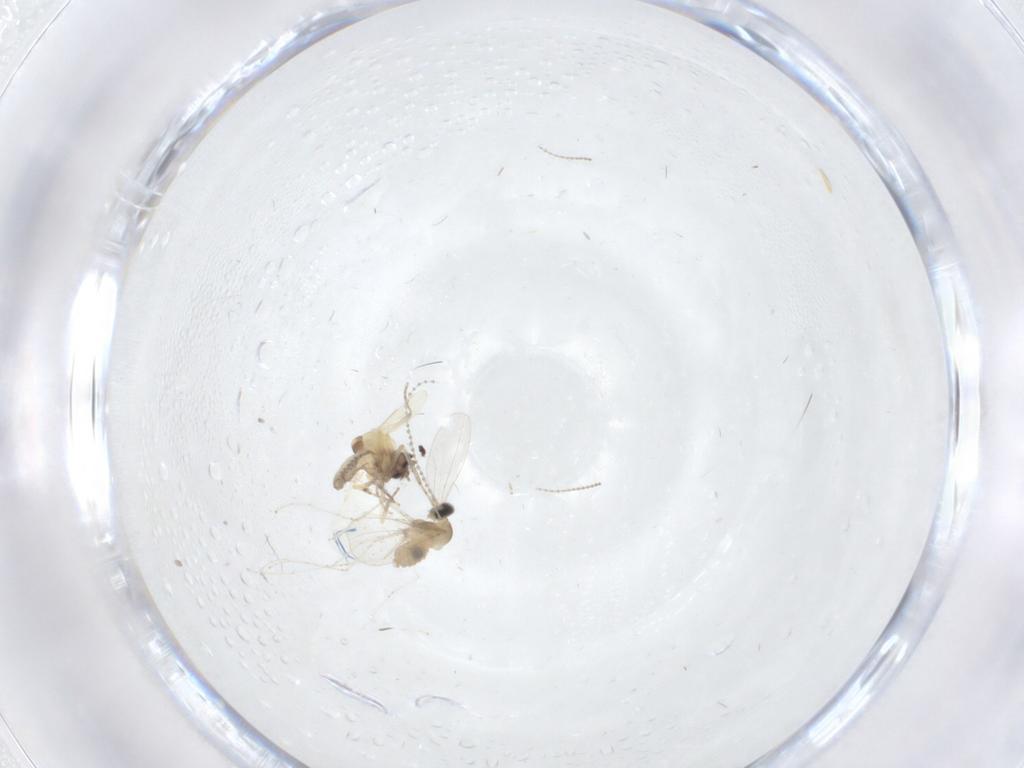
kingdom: Animalia
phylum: Arthropoda
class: Insecta
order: Diptera
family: Cecidomyiidae
